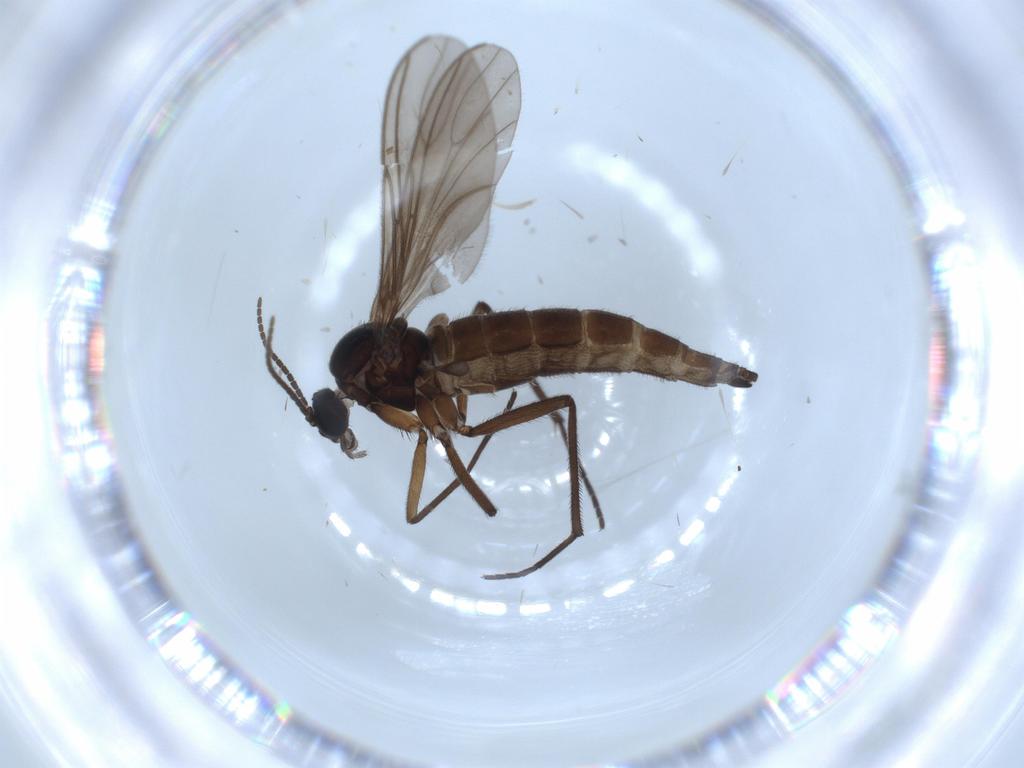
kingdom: Animalia
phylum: Arthropoda
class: Insecta
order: Diptera
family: Sciaridae
